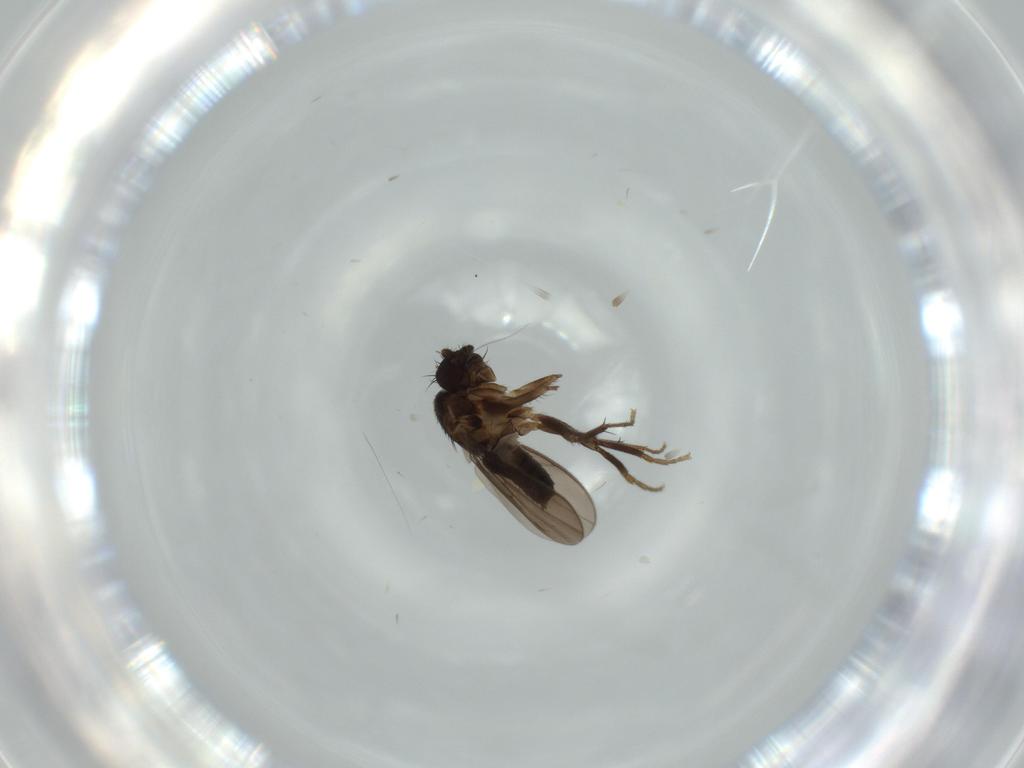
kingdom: Animalia
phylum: Arthropoda
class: Insecta
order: Diptera
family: Sphaeroceridae
